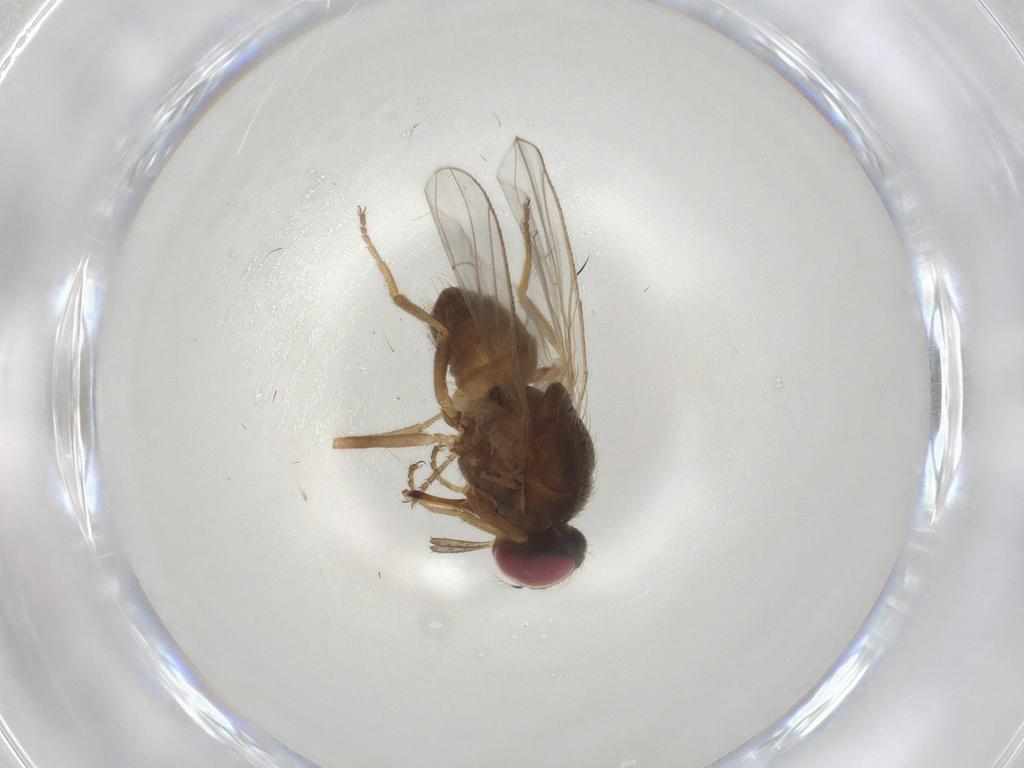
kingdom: Animalia
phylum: Arthropoda
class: Insecta
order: Diptera
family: Muscidae
